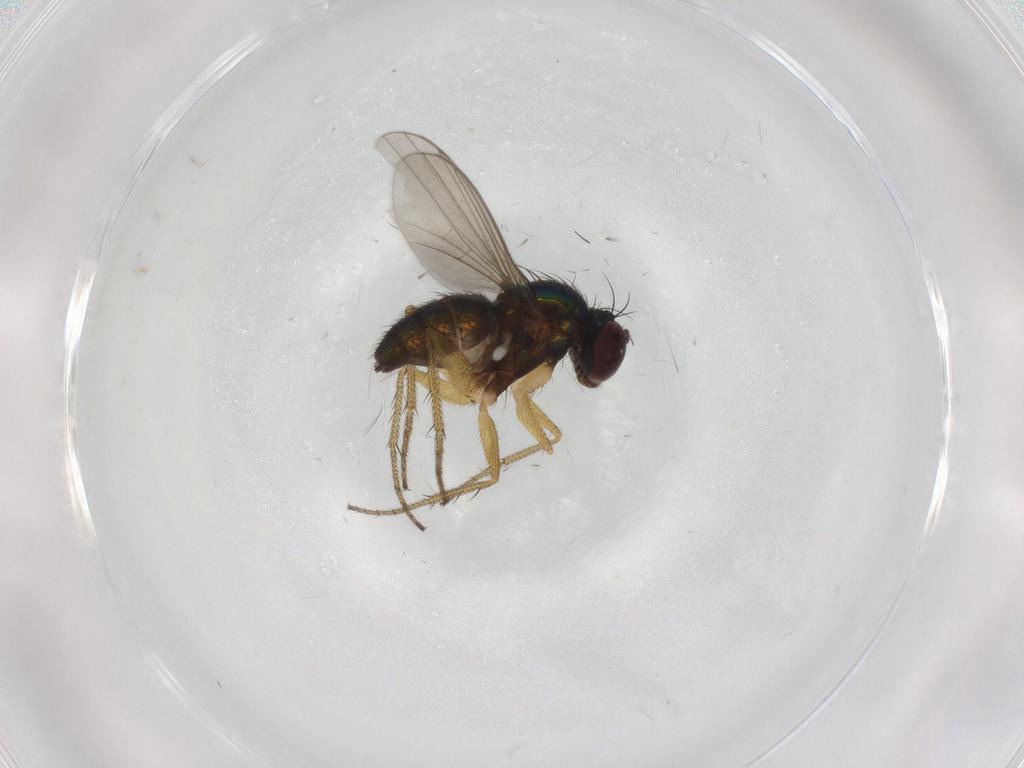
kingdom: Animalia
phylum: Arthropoda
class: Insecta
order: Diptera
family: Dolichopodidae
